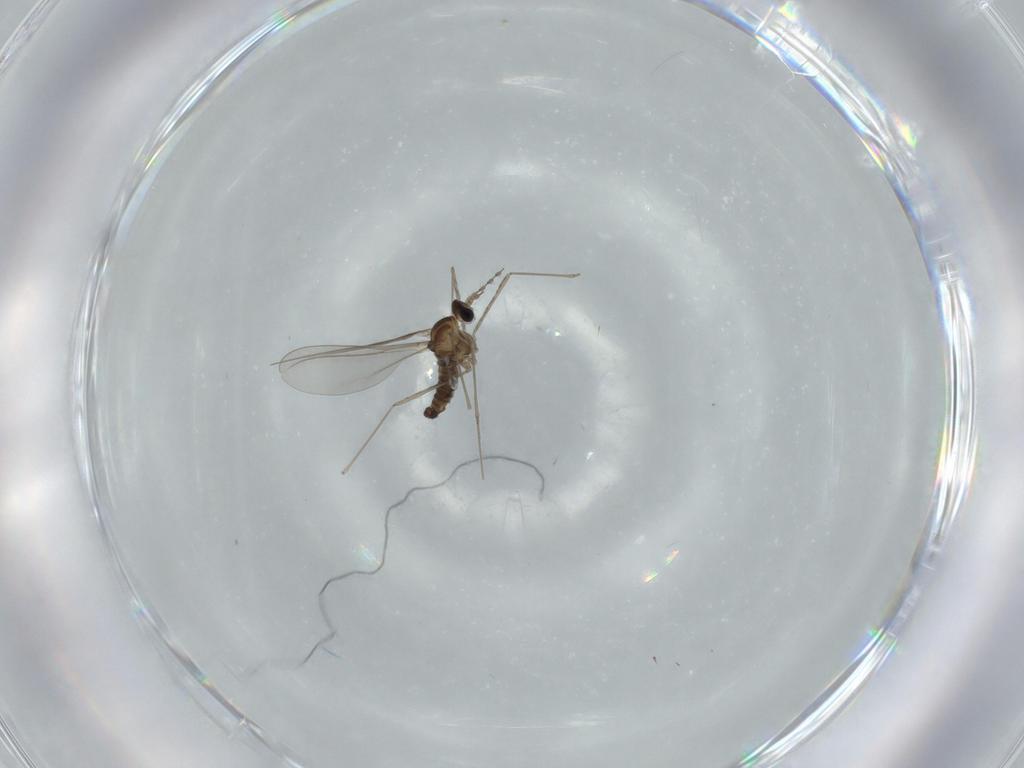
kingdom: Animalia
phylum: Arthropoda
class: Insecta
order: Diptera
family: Cecidomyiidae
